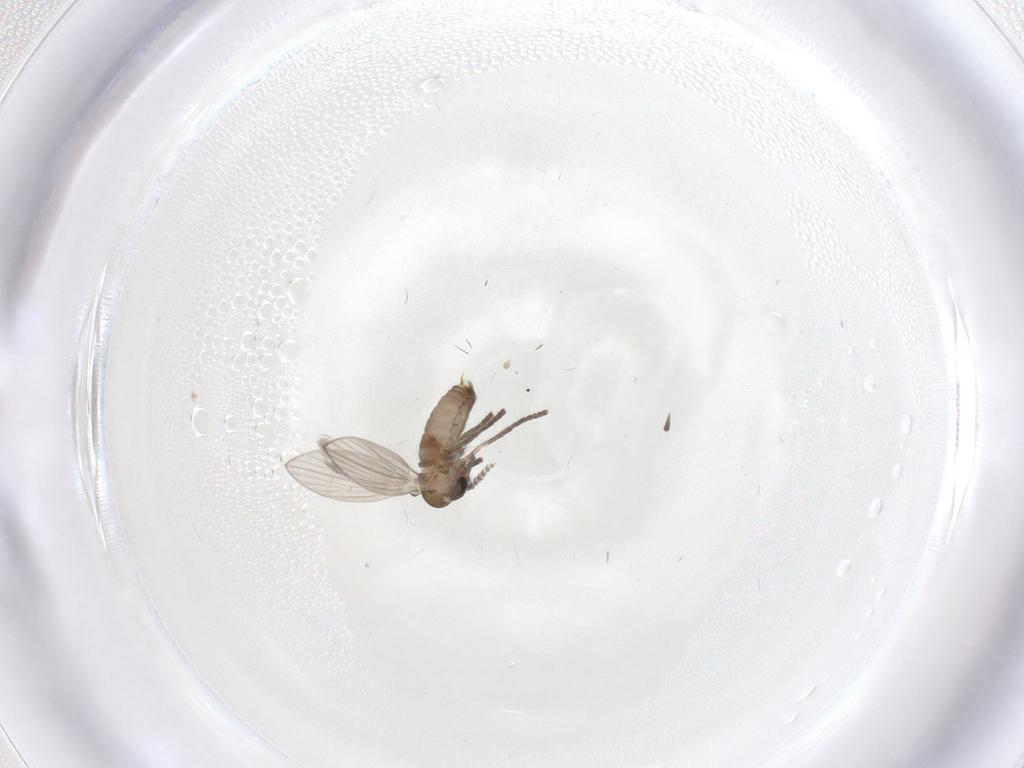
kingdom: Animalia
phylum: Arthropoda
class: Insecta
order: Diptera
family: Psychodidae
